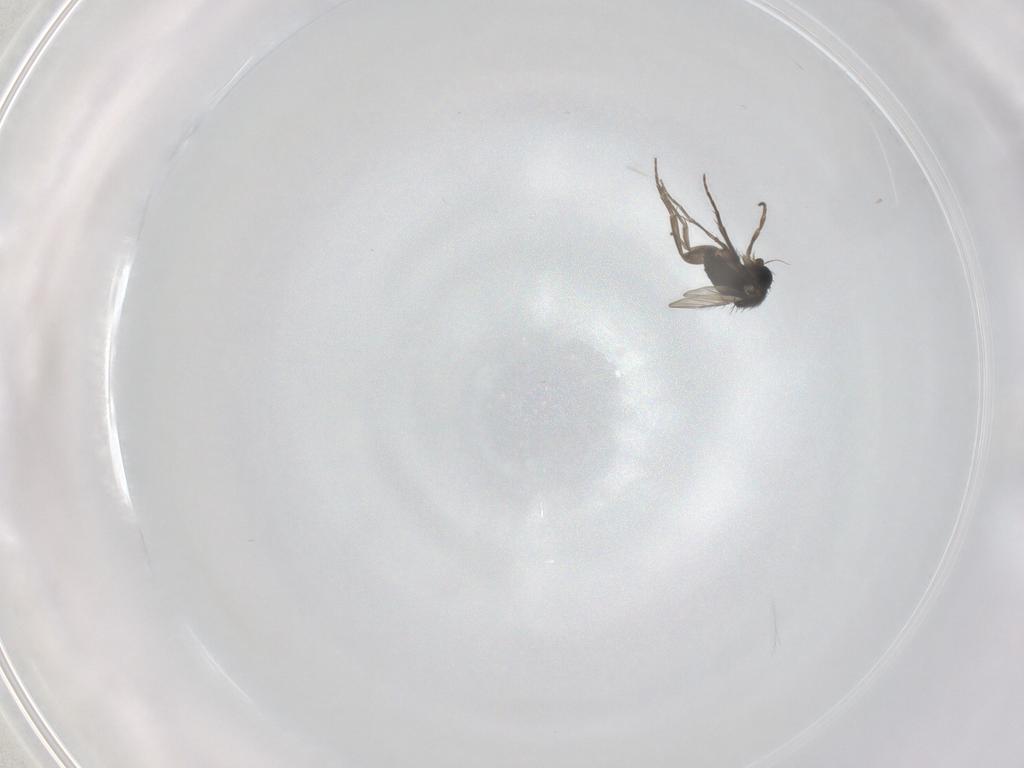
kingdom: Animalia
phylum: Arthropoda
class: Insecta
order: Diptera
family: Phoridae
